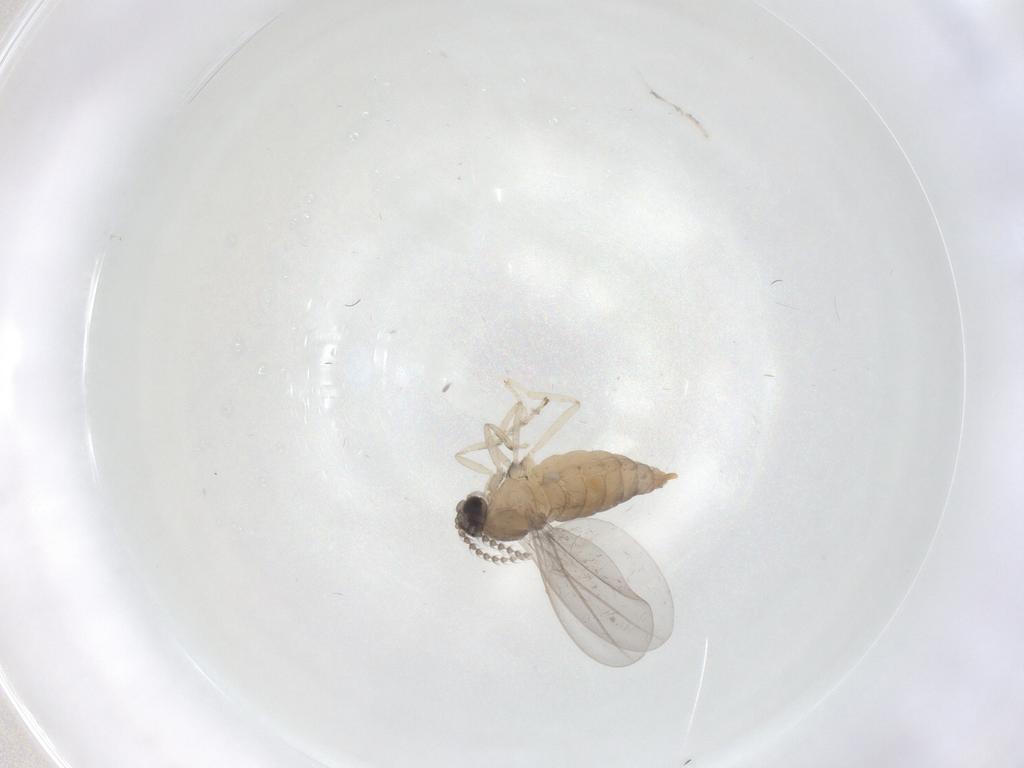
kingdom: Animalia
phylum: Arthropoda
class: Insecta
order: Diptera
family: Cecidomyiidae
